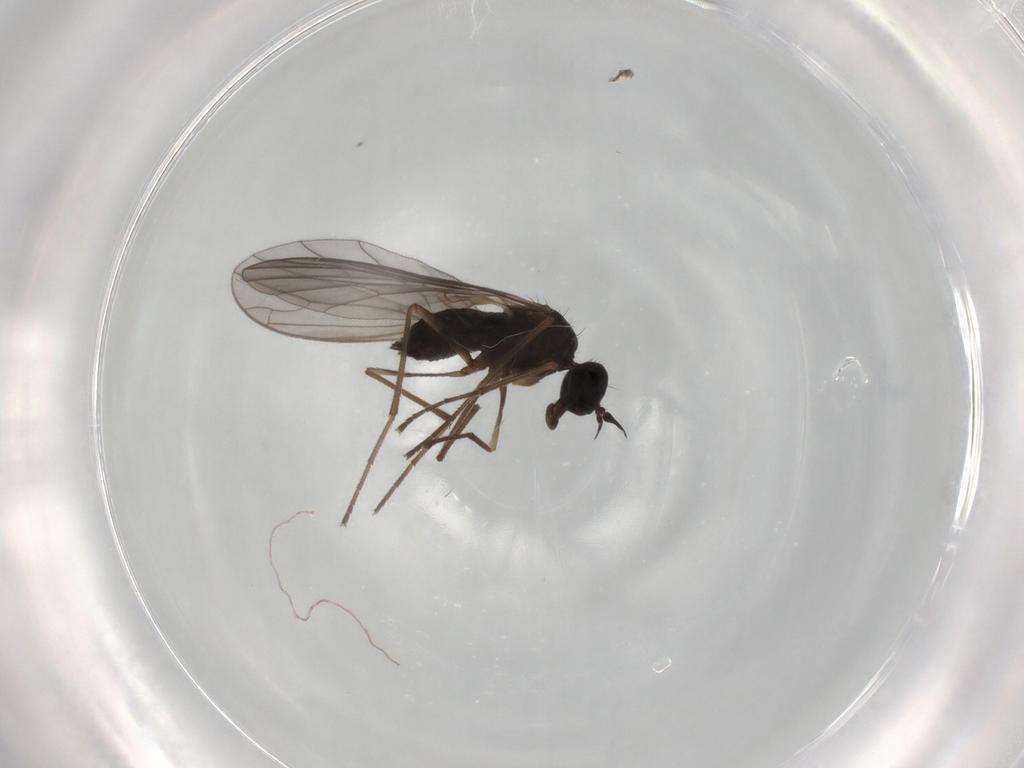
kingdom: Animalia
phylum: Arthropoda
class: Insecta
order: Diptera
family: Empididae
